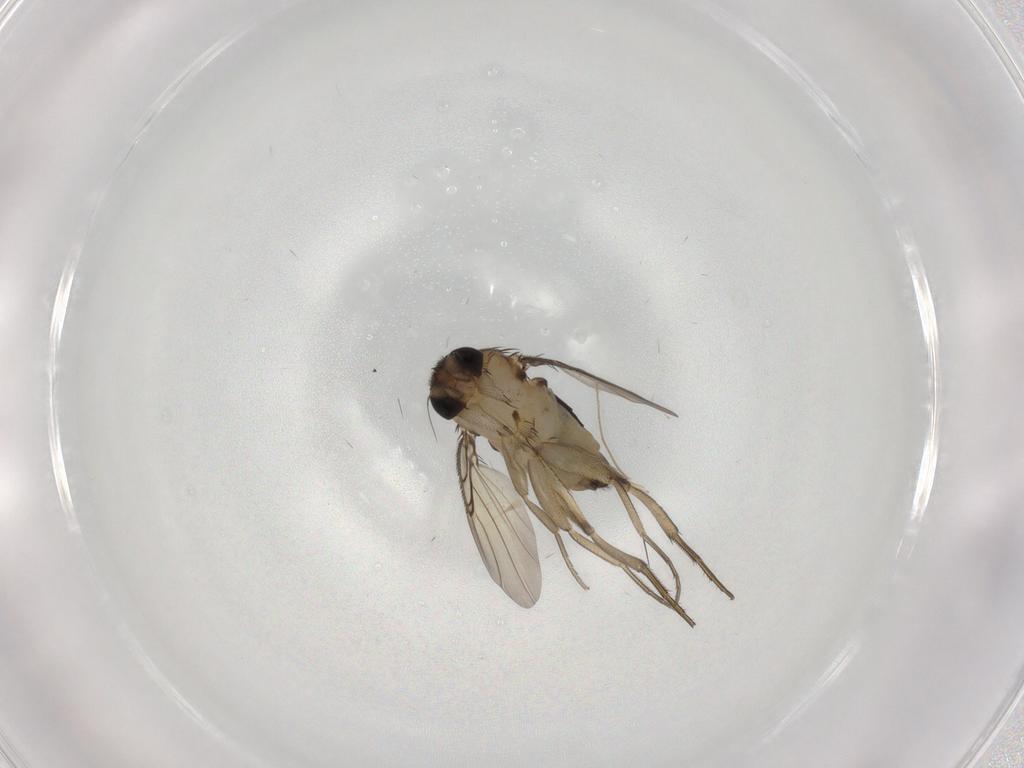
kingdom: Animalia
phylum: Arthropoda
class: Insecta
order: Diptera
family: Phoridae
